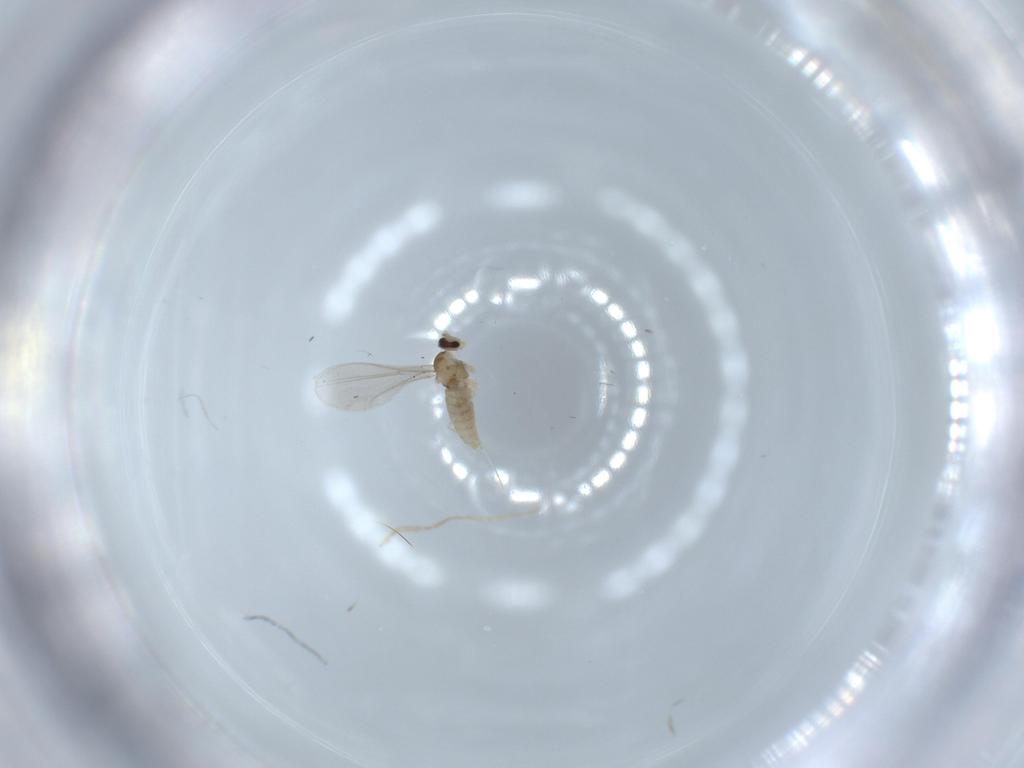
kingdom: Animalia
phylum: Arthropoda
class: Insecta
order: Diptera
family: Cecidomyiidae
